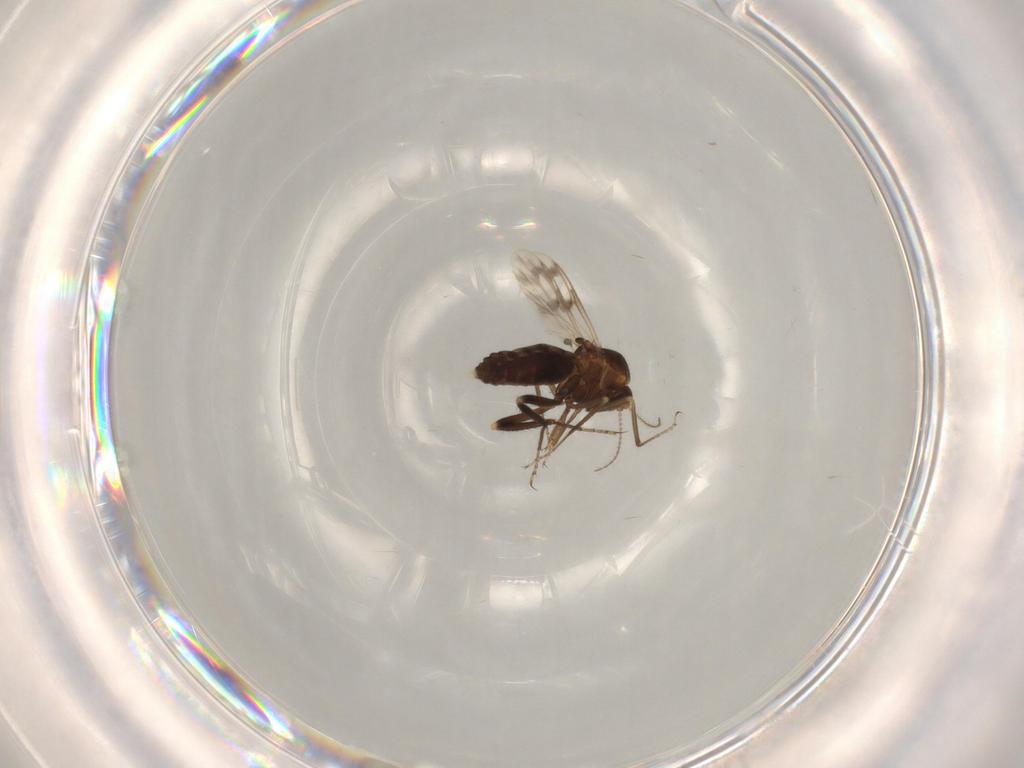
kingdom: Animalia
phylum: Arthropoda
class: Insecta
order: Diptera
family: Ceratopogonidae
